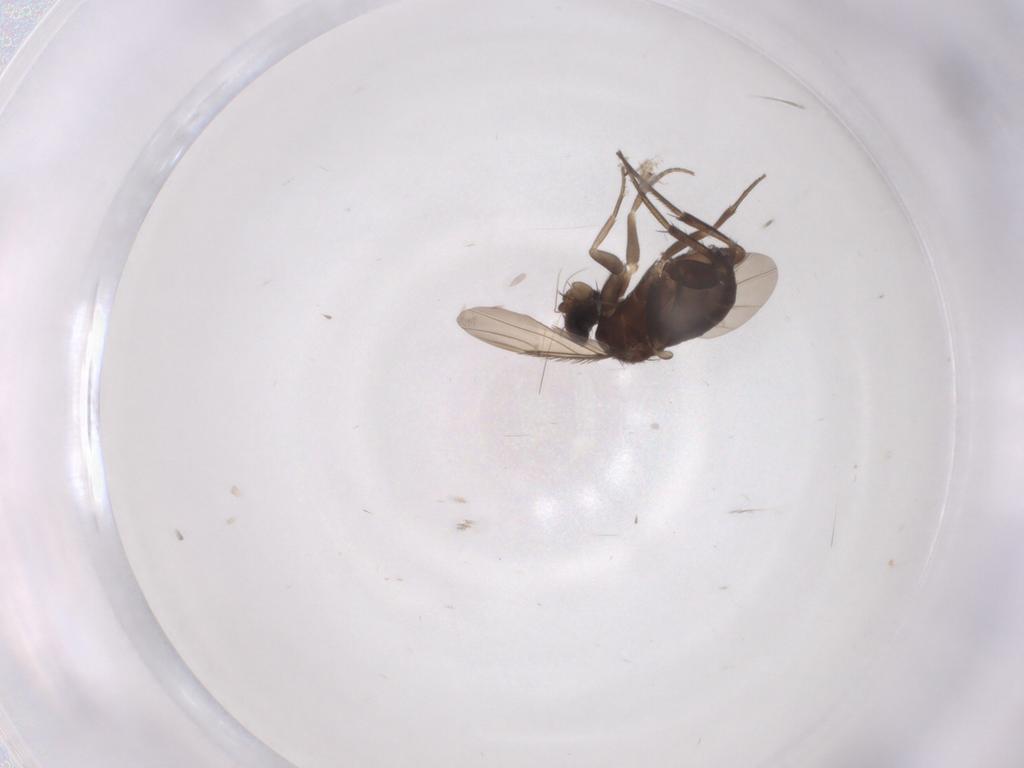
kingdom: Animalia
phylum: Arthropoda
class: Insecta
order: Diptera
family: Phoridae
